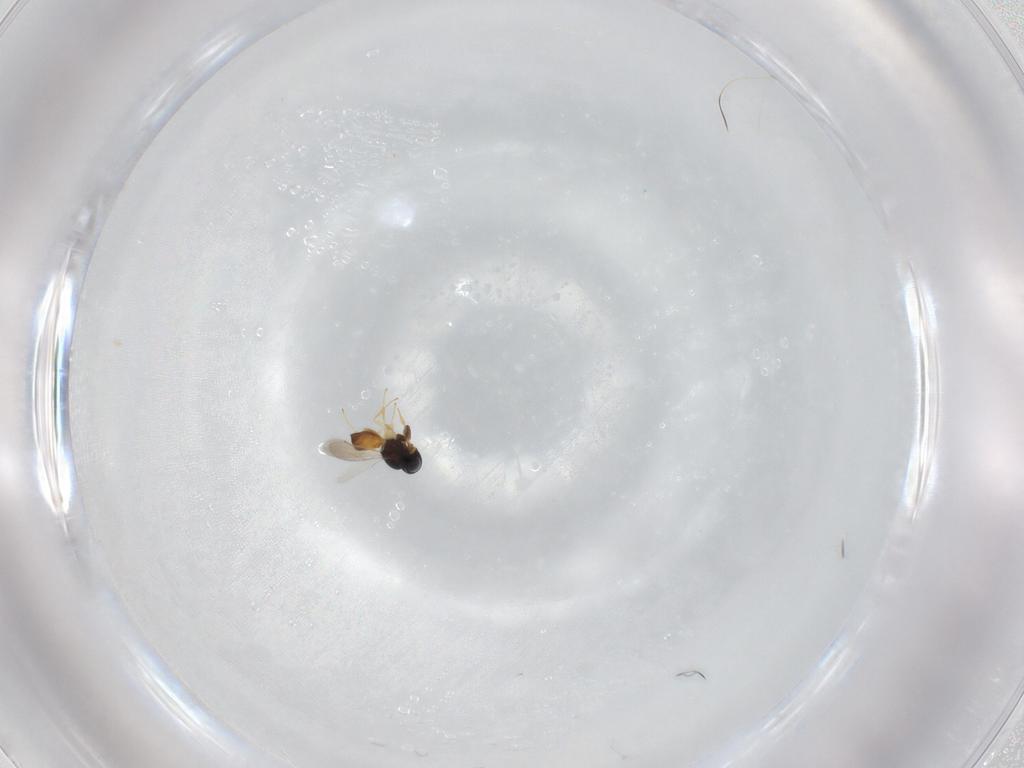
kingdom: Animalia
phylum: Arthropoda
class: Insecta
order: Hymenoptera
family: Scelionidae
